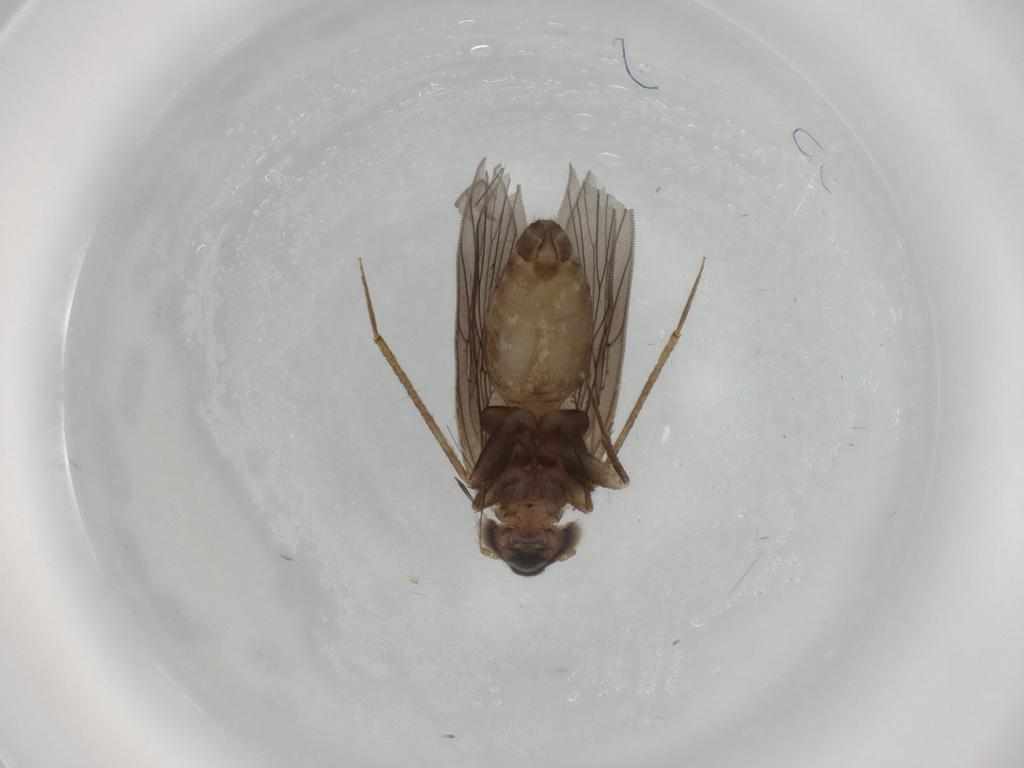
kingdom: Animalia
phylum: Arthropoda
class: Insecta
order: Psocodea
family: Lepidopsocidae
